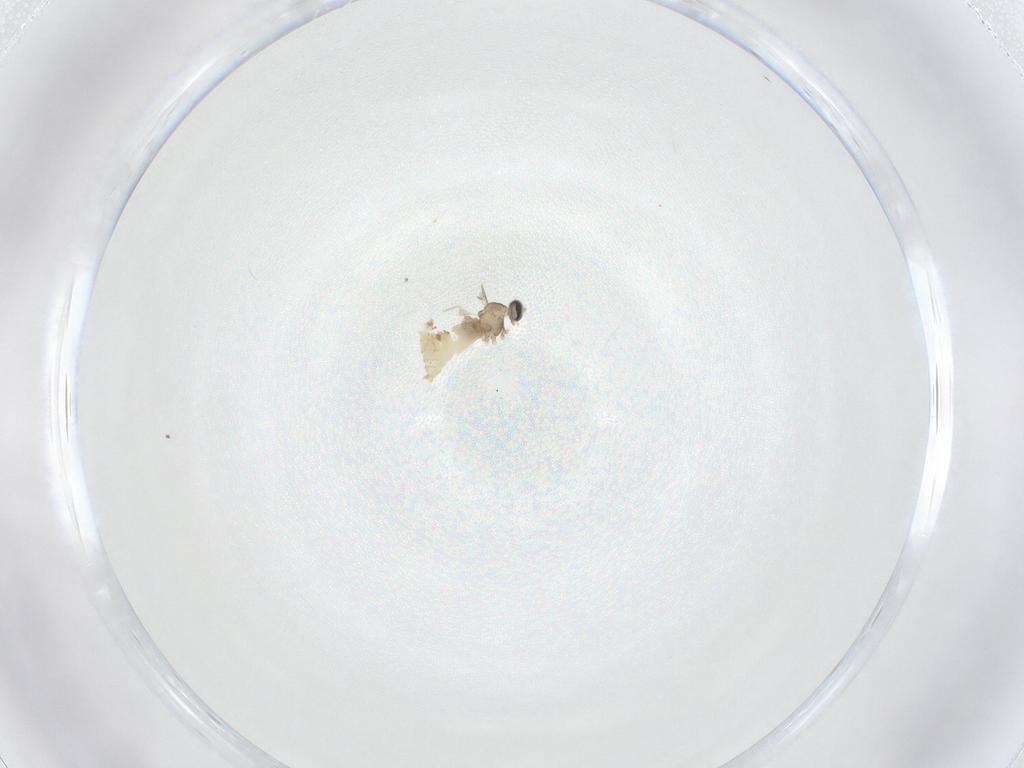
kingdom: Animalia
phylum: Arthropoda
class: Insecta
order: Diptera
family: Cecidomyiidae
